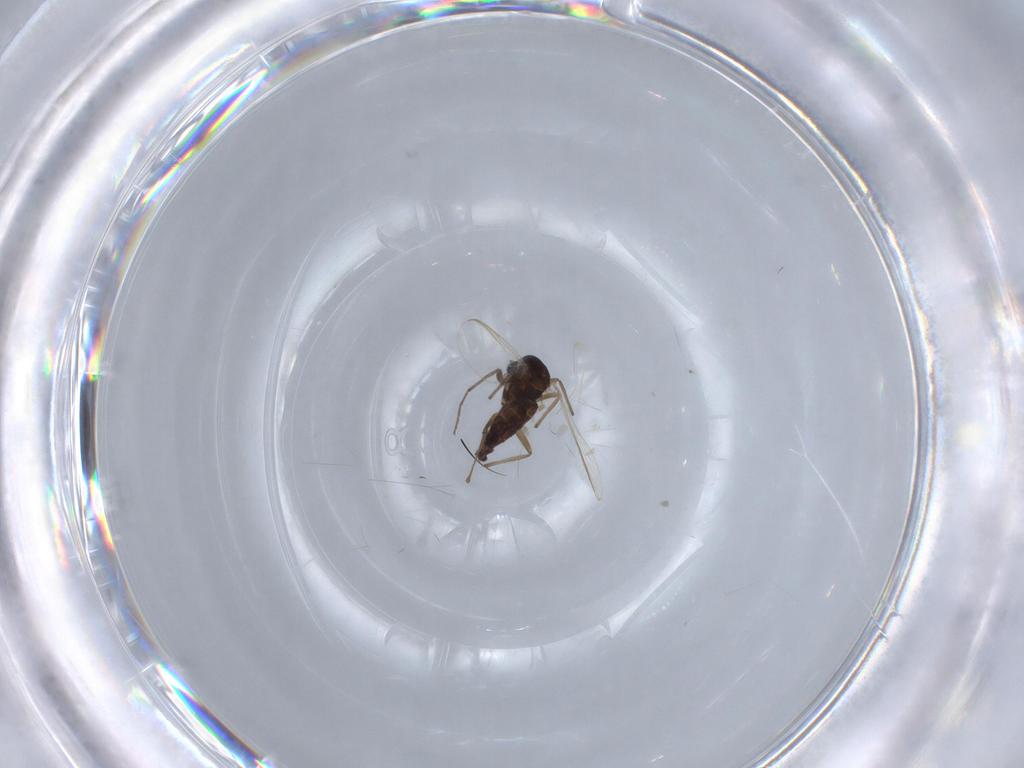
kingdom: Animalia
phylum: Arthropoda
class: Insecta
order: Diptera
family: Chironomidae
